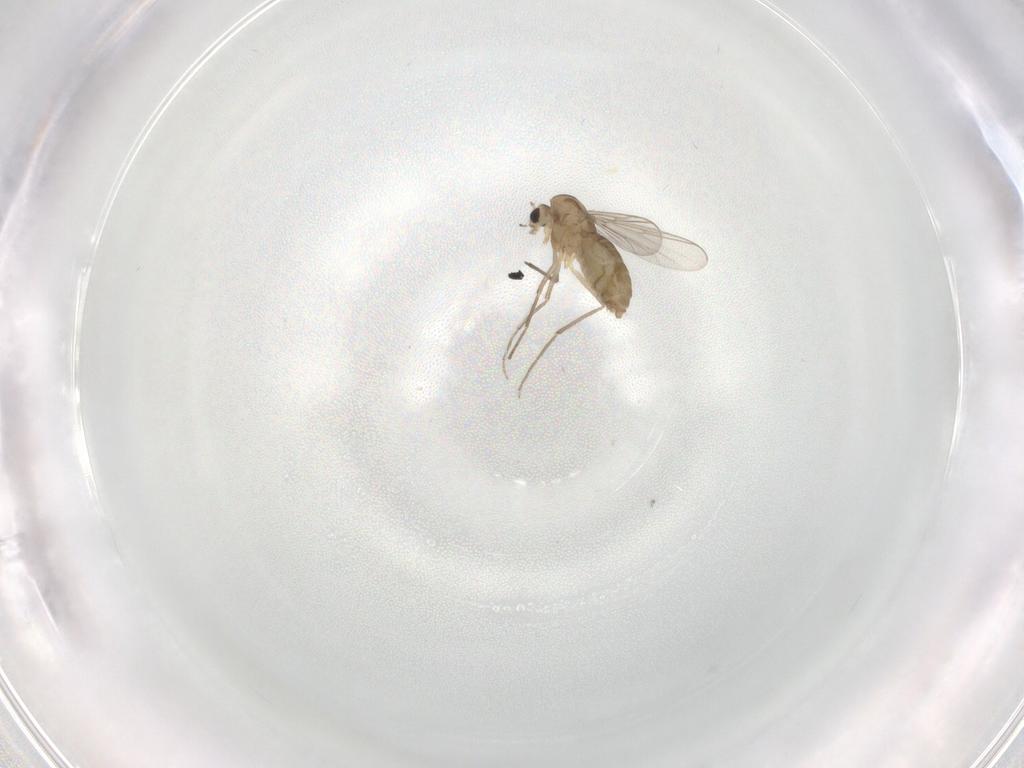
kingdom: Animalia
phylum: Arthropoda
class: Insecta
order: Diptera
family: Chironomidae
